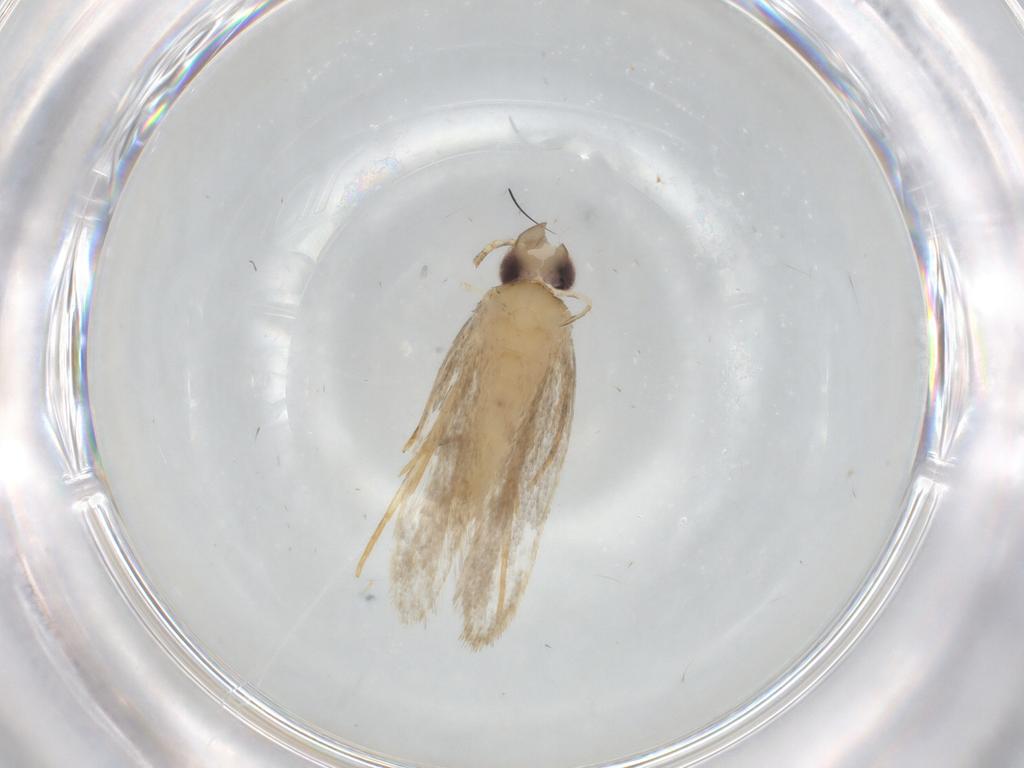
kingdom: Animalia
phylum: Arthropoda
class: Insecta
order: Lepidoptera
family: Autostichidae
